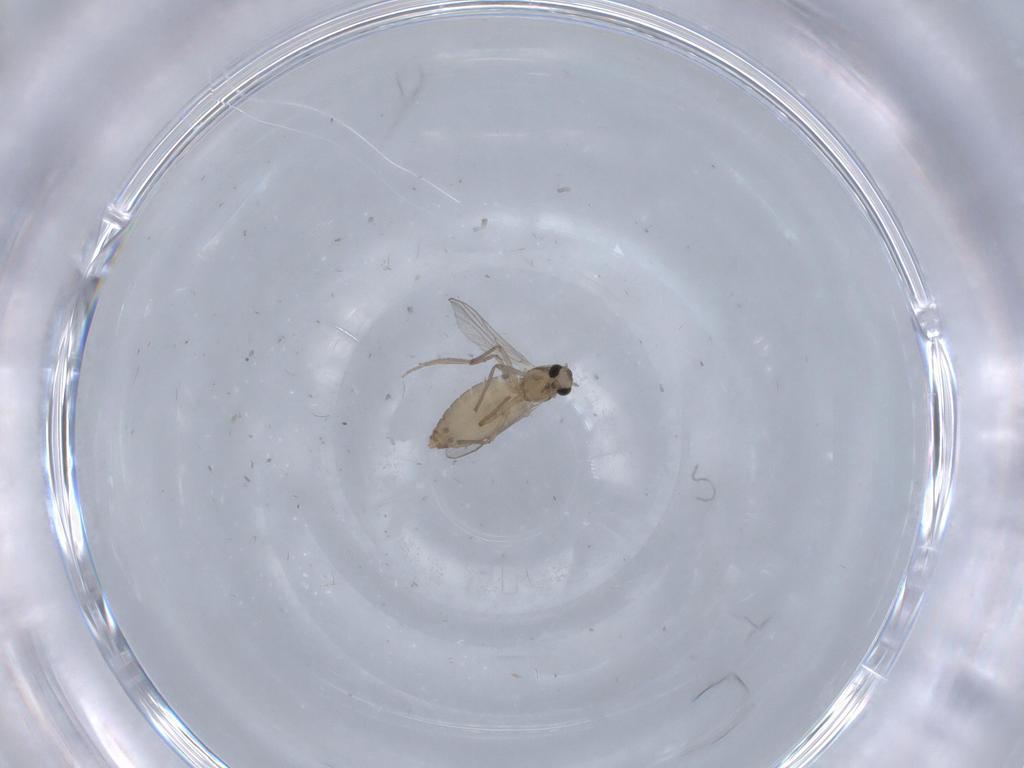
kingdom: Animalia
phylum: Arthropoda
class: Insecta
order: Diptera
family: Chironomidae
